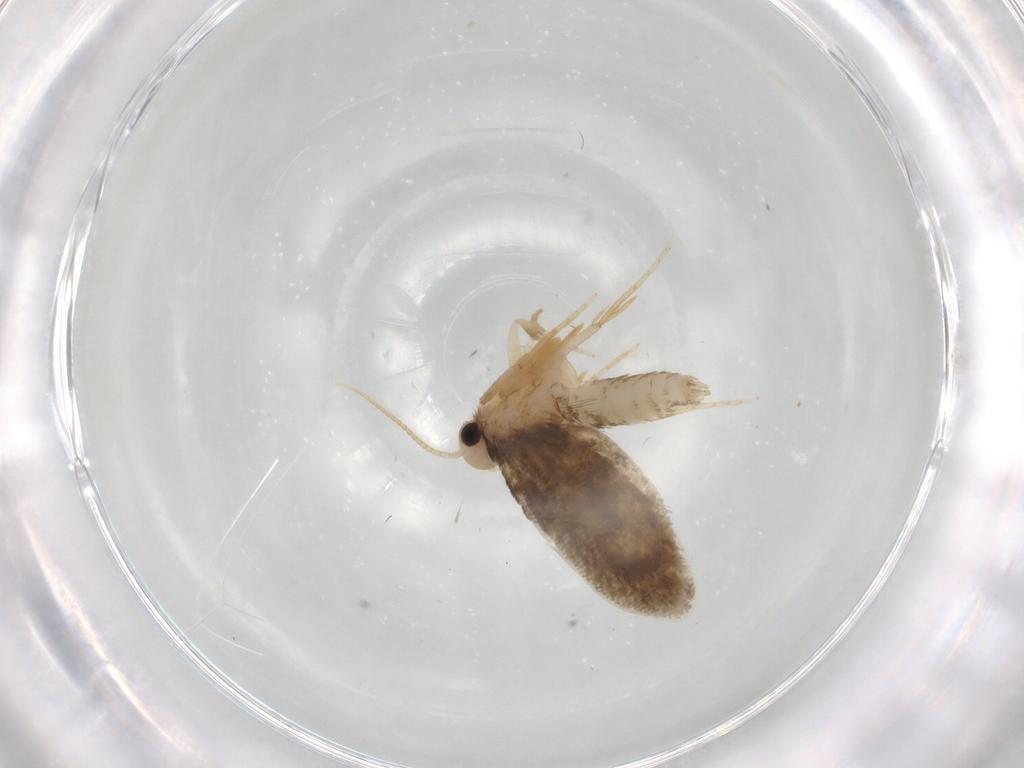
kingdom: Animalia
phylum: Arthropoda
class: Insecta
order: Lepidoptera
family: Psychidae
